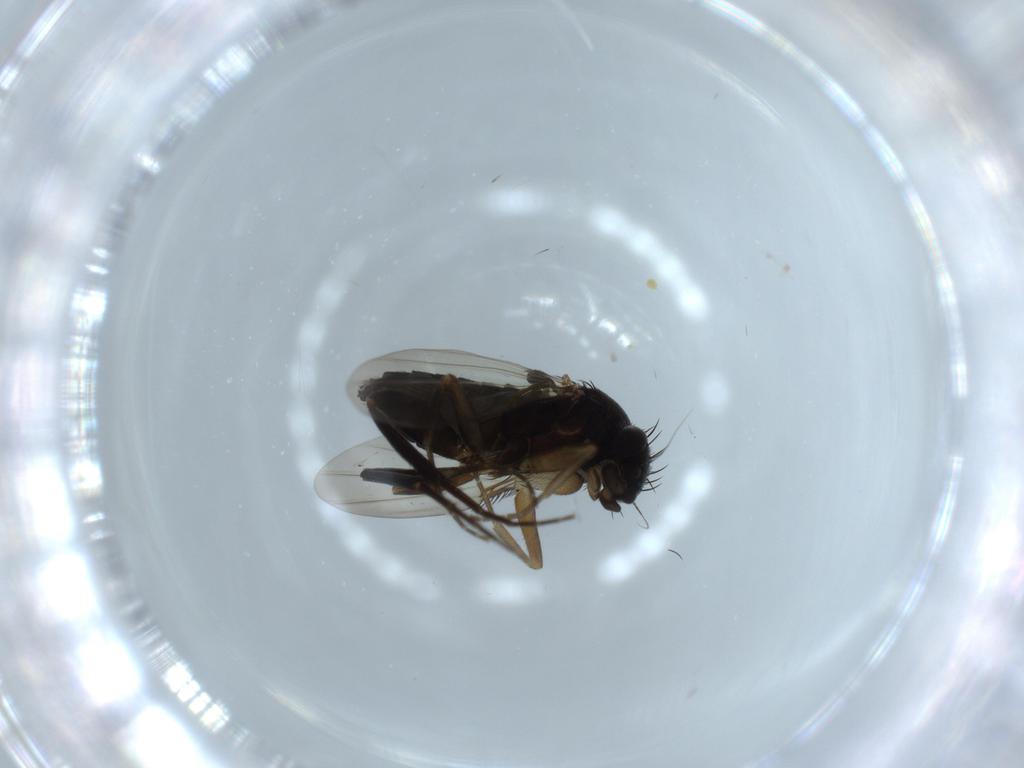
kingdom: Animalia
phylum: Arthropoda
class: Insecta
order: Diptera
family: Phoridae
